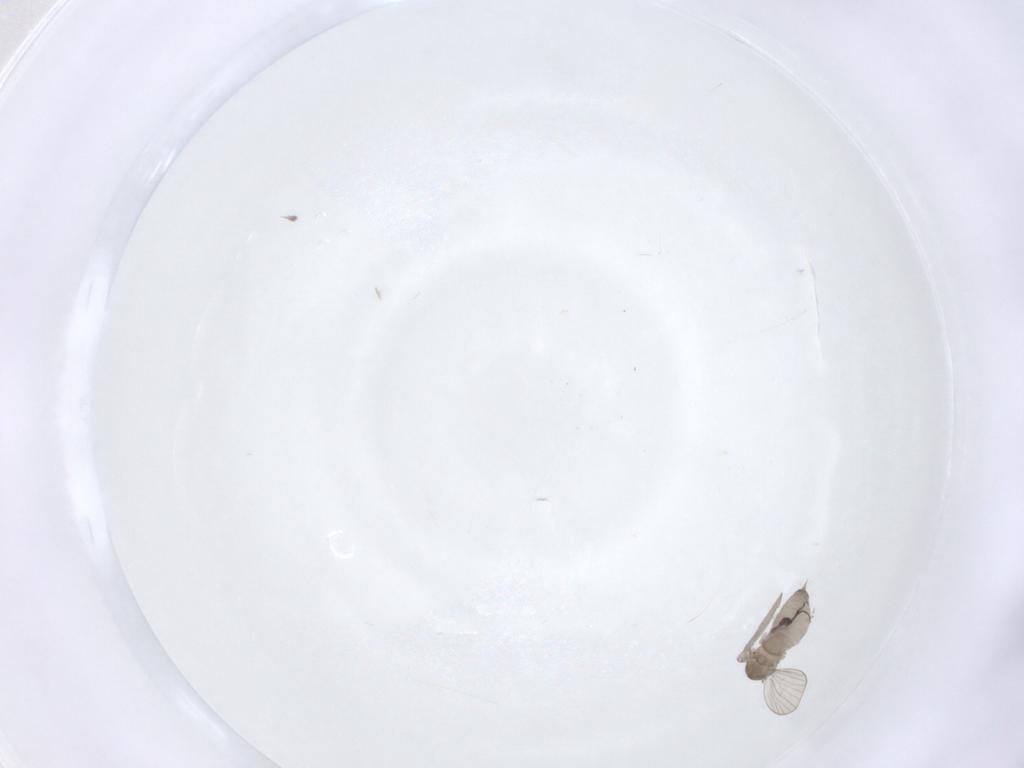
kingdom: Animalia
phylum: Arthropoda
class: Insecta
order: Diptera
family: Psychodidae
